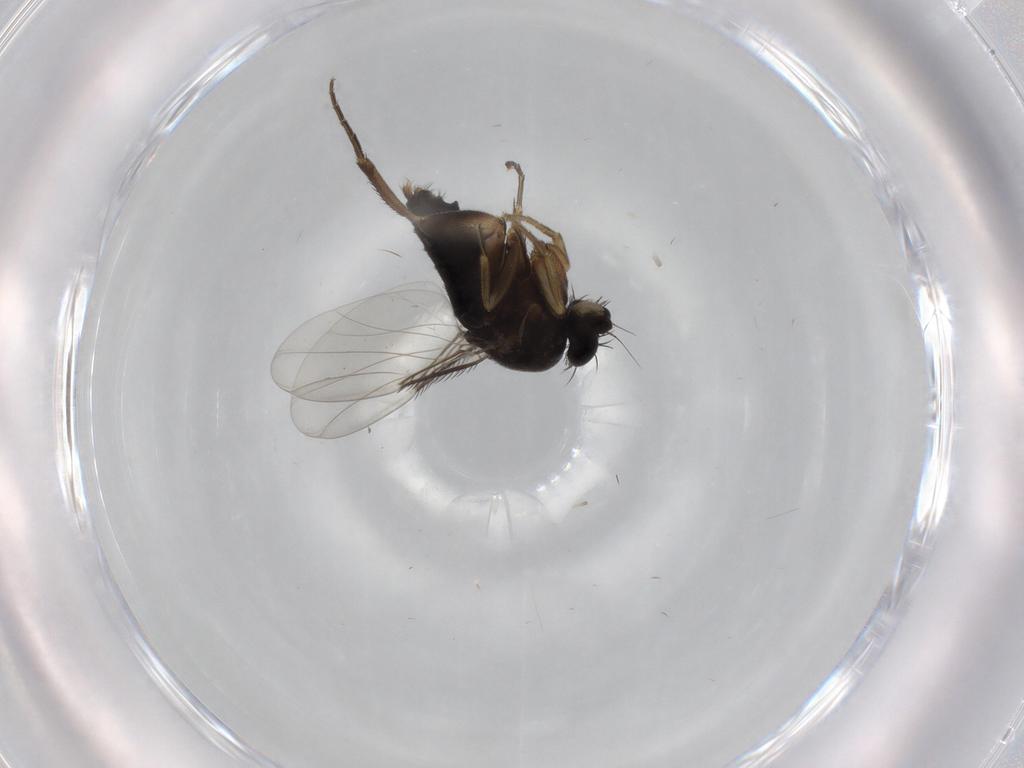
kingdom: Animalia
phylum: Arthropoda
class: Insecta
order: Diptera
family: Phoridae
